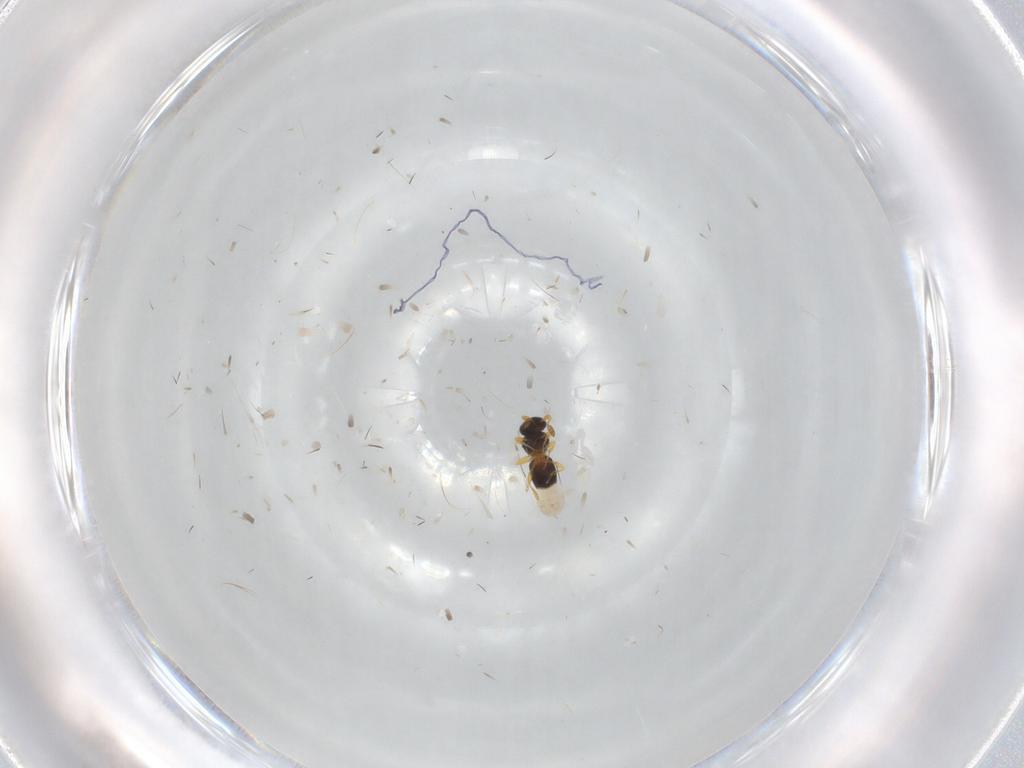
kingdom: Animalia
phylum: Arthropoda
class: Insecta
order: Hymenoptera
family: Platygastridae
